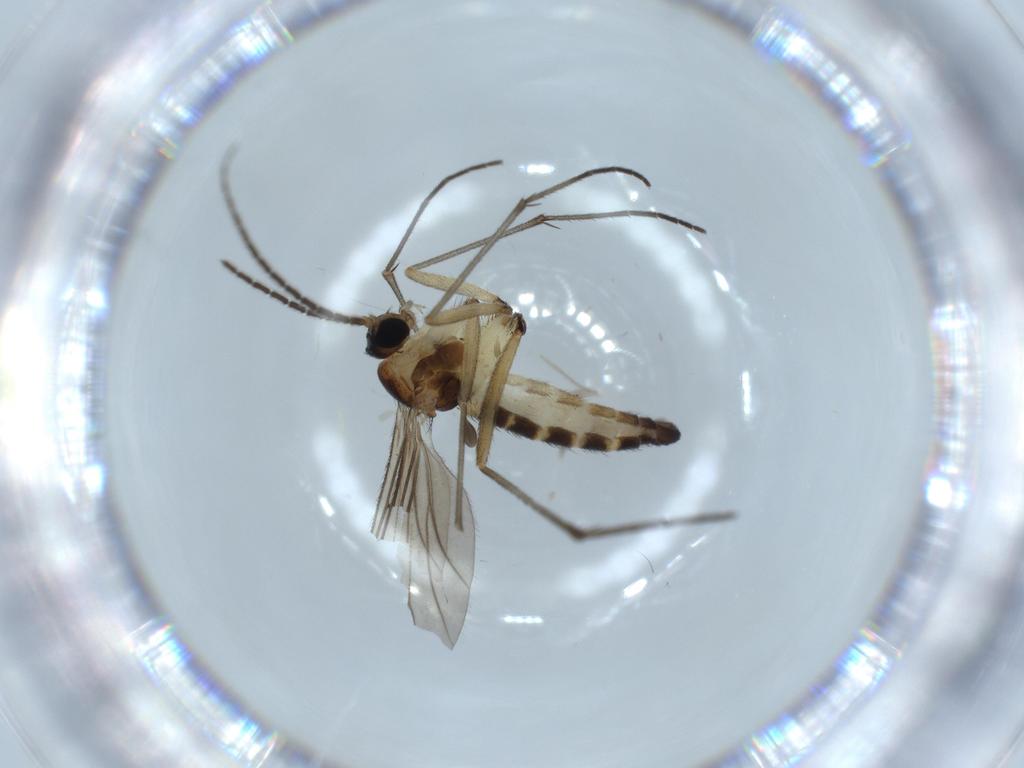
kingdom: Animalia
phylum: Arthropoda
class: Insecta
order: Diptera
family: Sciaridae
